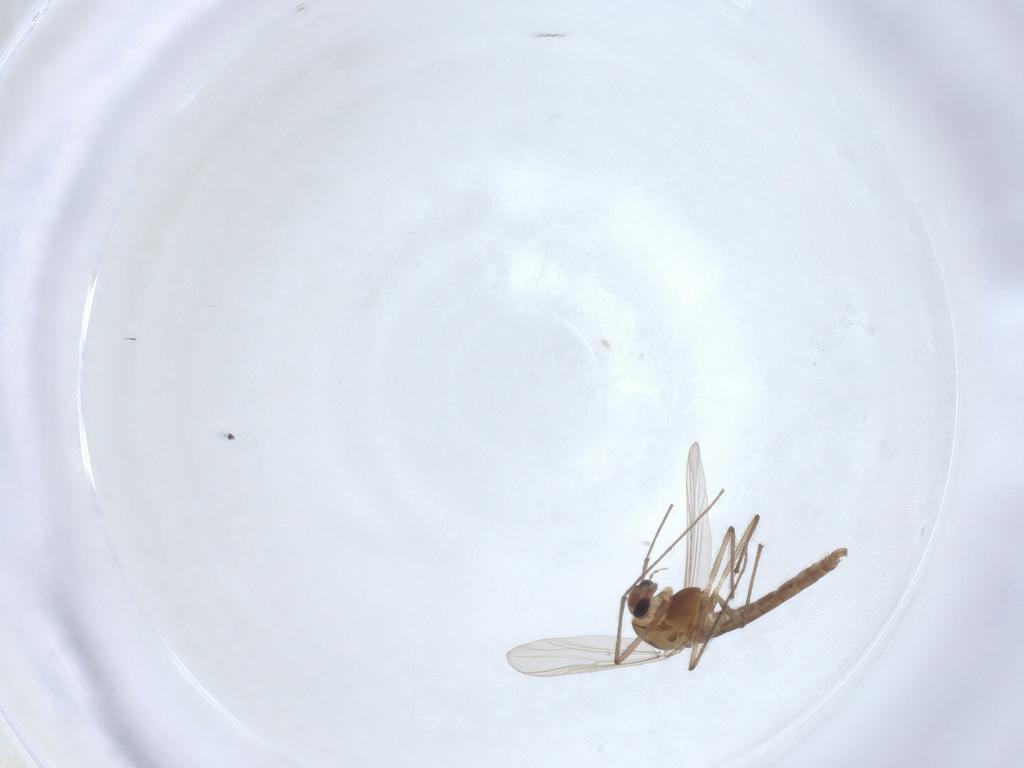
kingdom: Animalia
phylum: Arthropoda
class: Insecta
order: Diptera
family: Chironomidae
